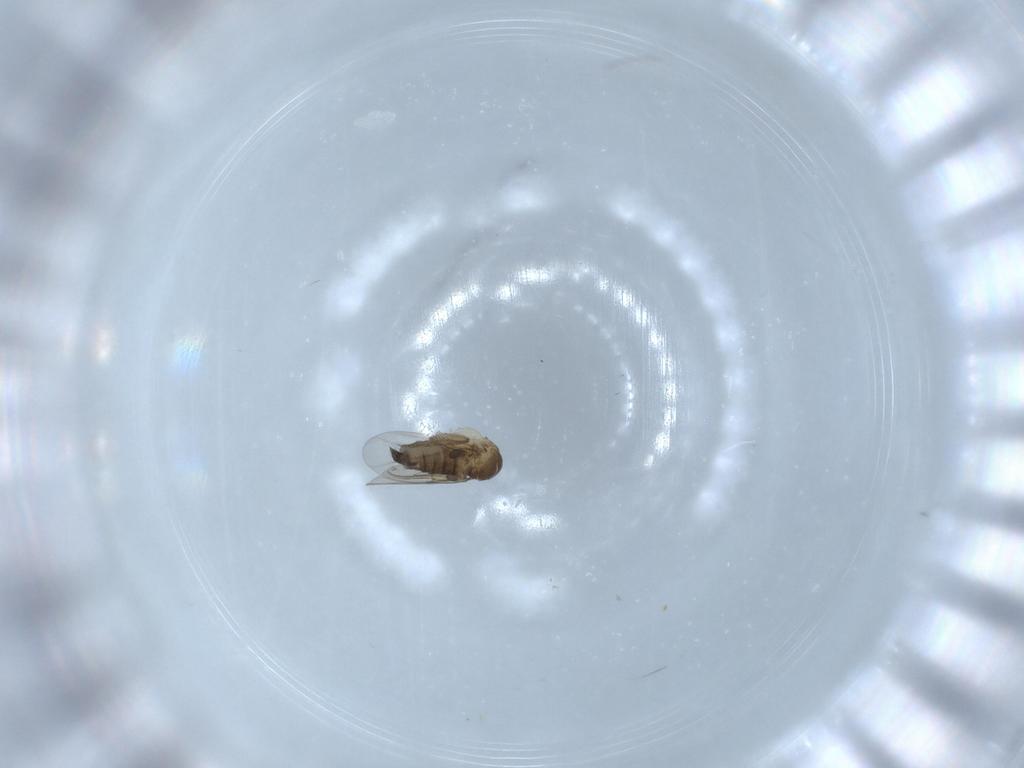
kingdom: Animalia
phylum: Arthropoda
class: Insecta
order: Diptera
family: Phoridae
